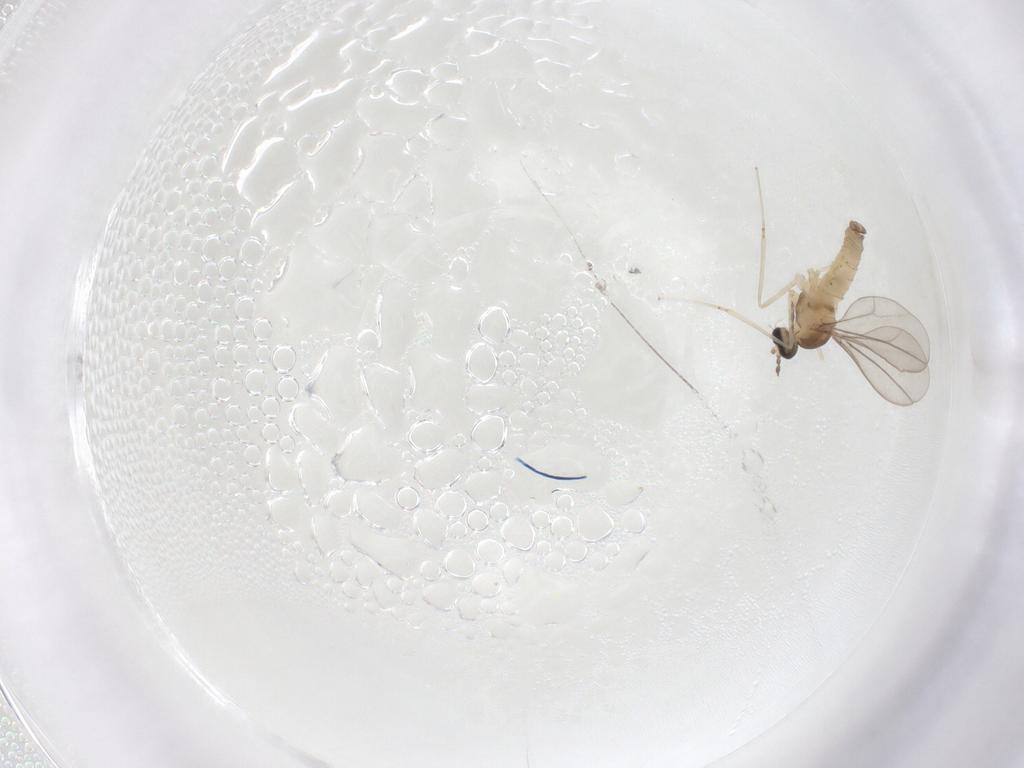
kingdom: Animalia
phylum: Arthropoda
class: Insecta
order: Diptera
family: Cecidomyiidae
